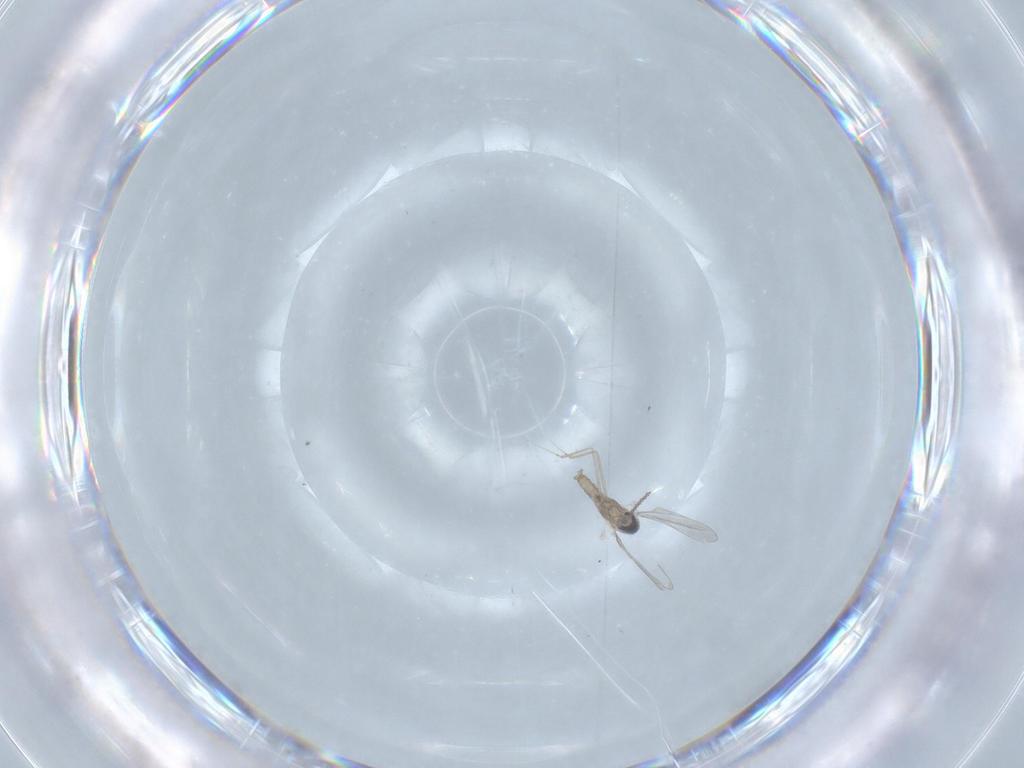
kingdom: Animalia
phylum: Arthropoda
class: Insecta
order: Diptera
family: Cecidomyiidae
